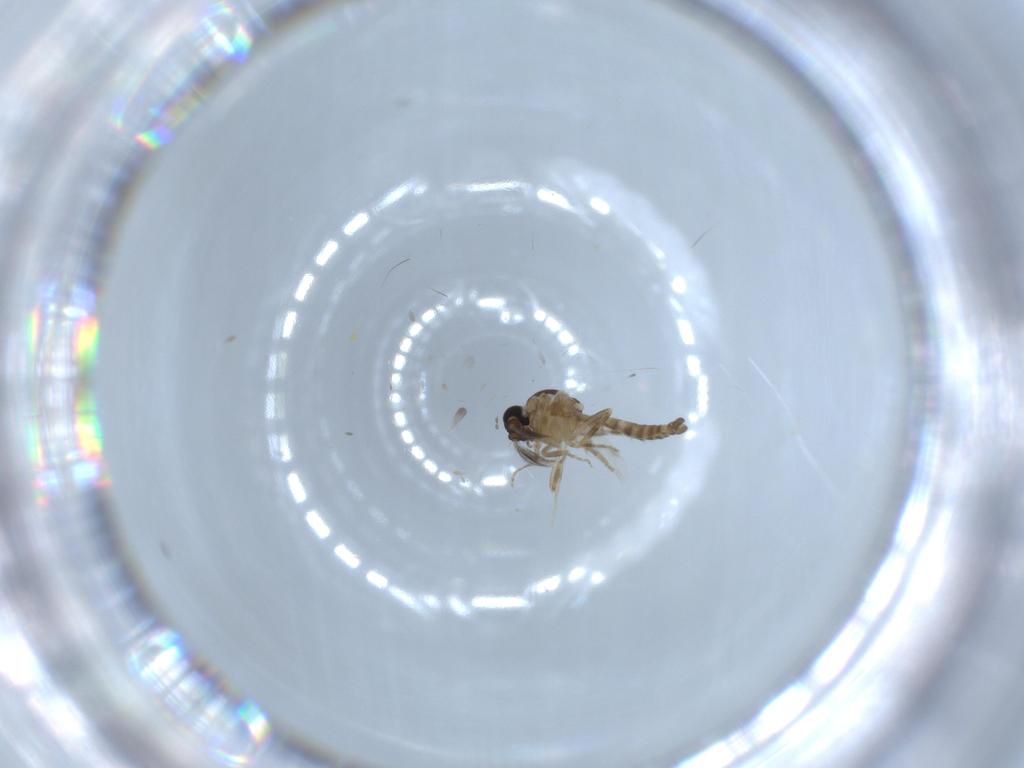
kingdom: Animalia
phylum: Arthropoda
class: Insecta
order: Diptera
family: Ceratopogonidae
